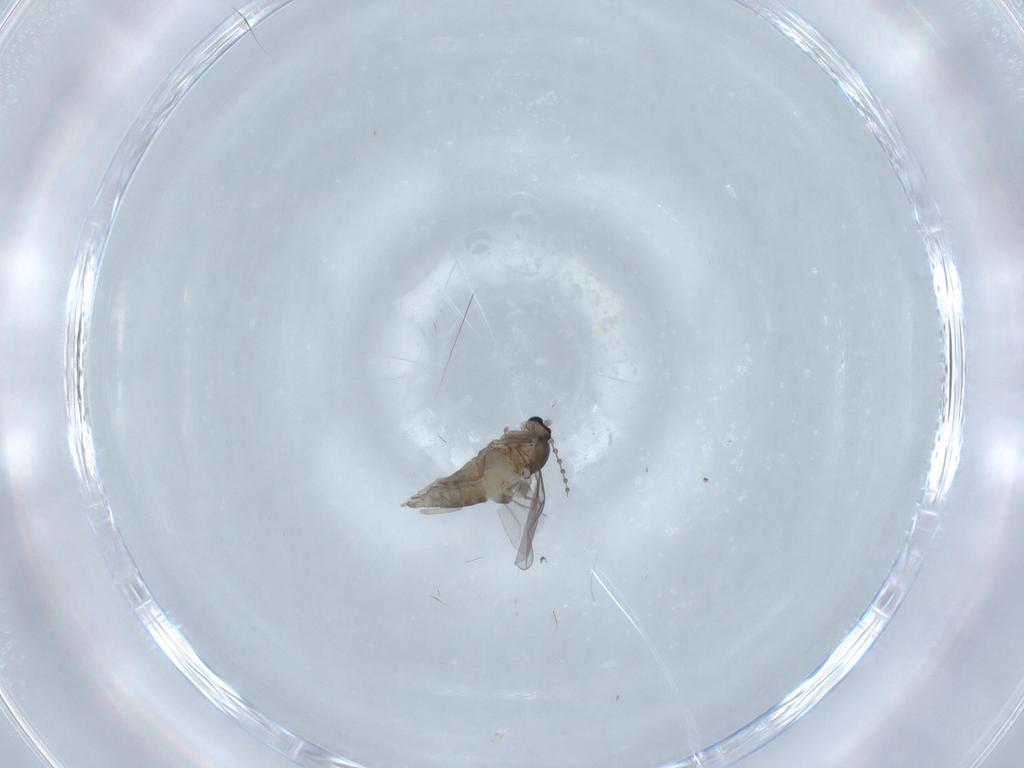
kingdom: Animalia
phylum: Arthropoda
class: Insecta
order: Diptera
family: Cecidomyiidae
